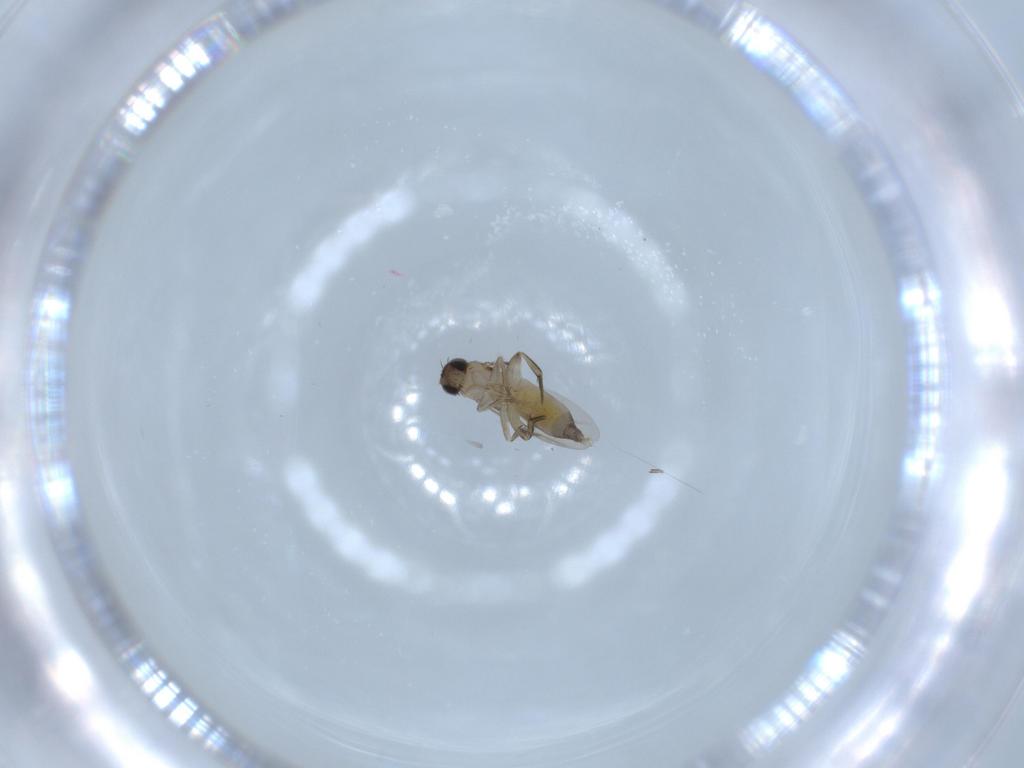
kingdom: Animalia
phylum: Arthropoda
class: Insecta
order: Diptera
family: Phoridae
